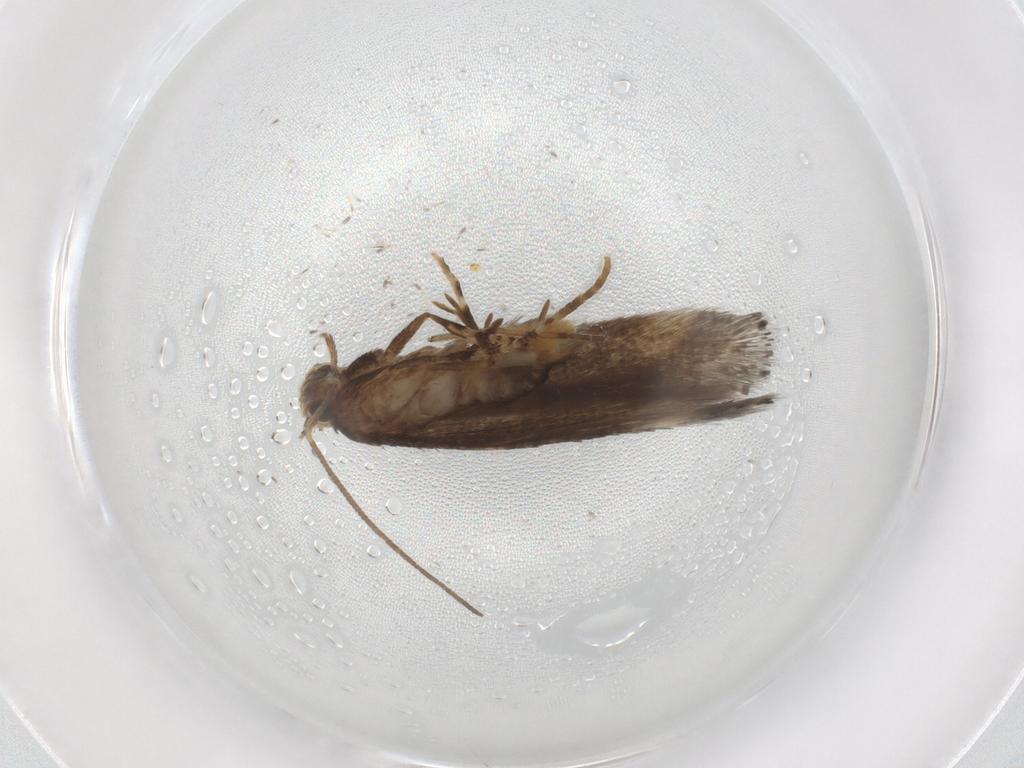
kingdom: Animalia
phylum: Arthropoda
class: Insecta
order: Lepidoptera
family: Elachistidae
